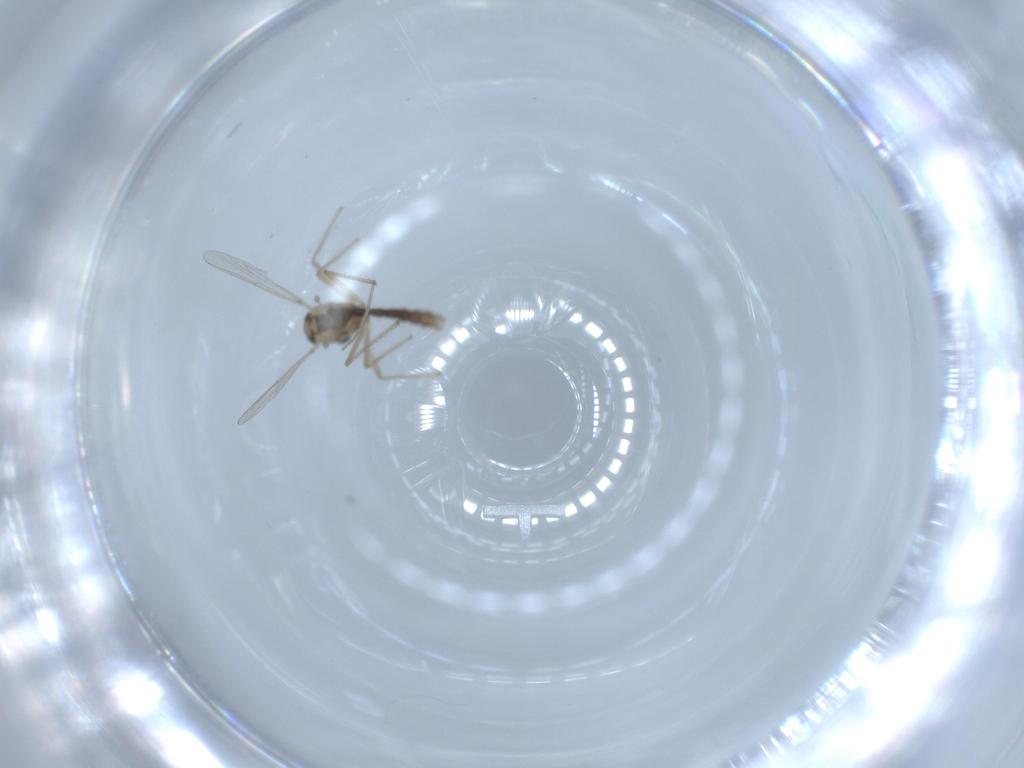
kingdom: Animalia
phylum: Arthropoda
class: Insecta
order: Diptera
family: Chironomidae
